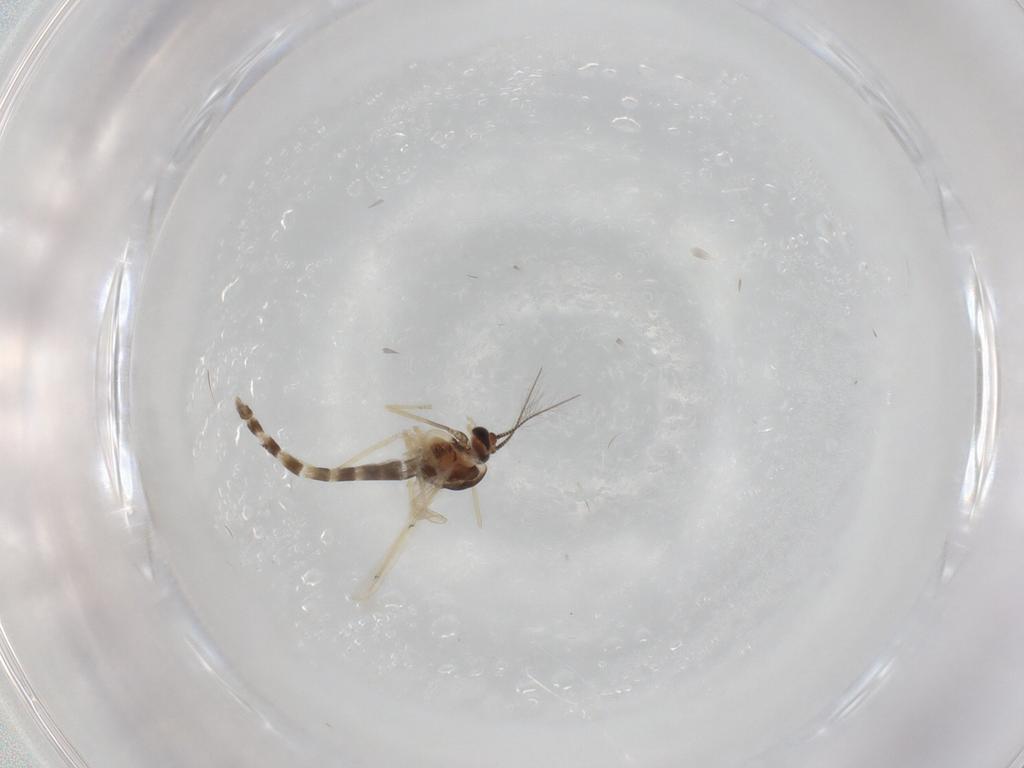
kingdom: Animalia
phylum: Arthropoda
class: Insecta
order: Diptera
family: Chironomidae
